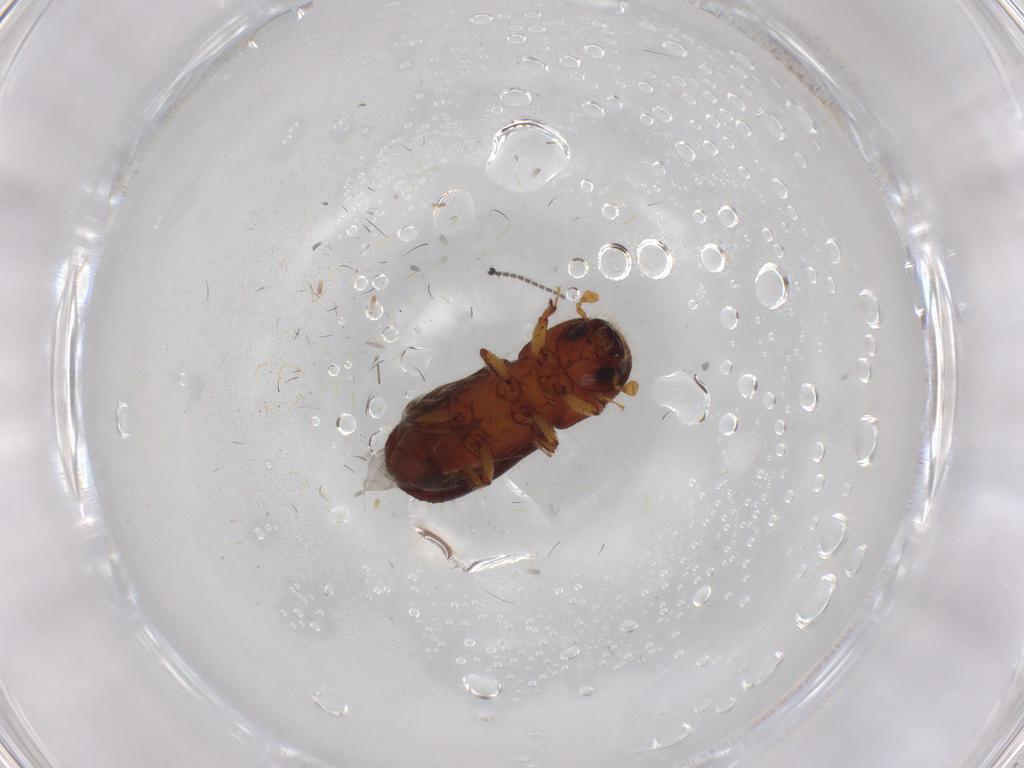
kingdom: Animalia
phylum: Arthropoda
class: Insecta
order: Coleoptera
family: Curculionidae
